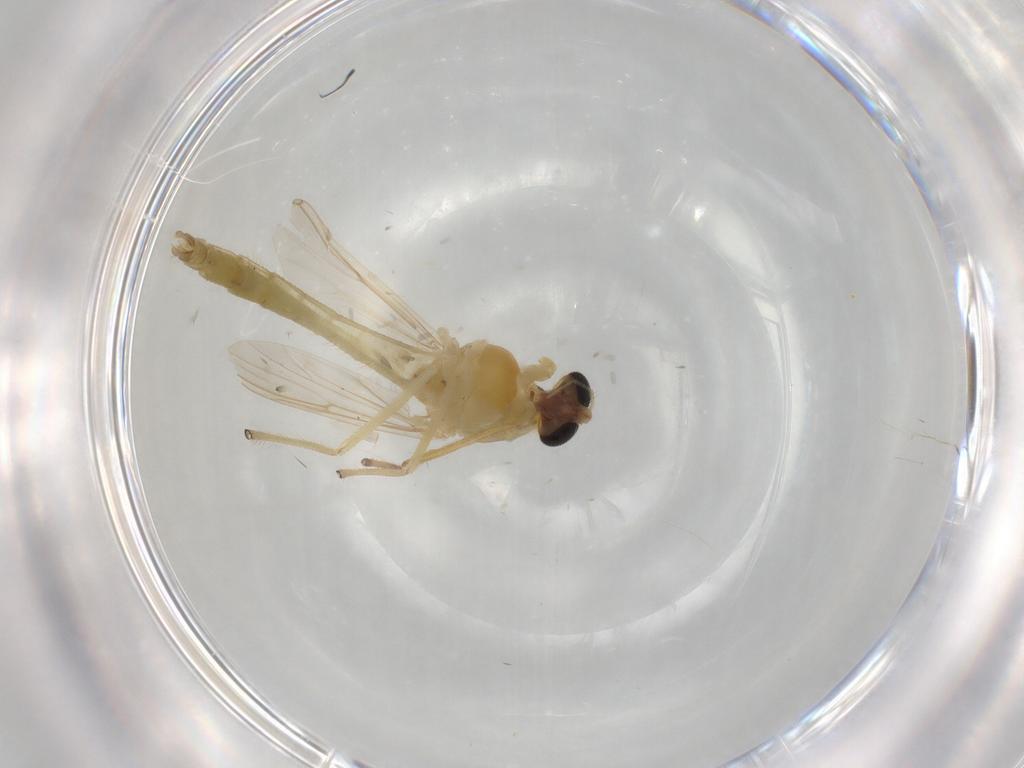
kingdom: Animalia
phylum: Arthropoda
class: Insecta
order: Diptera
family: Chironomidae
